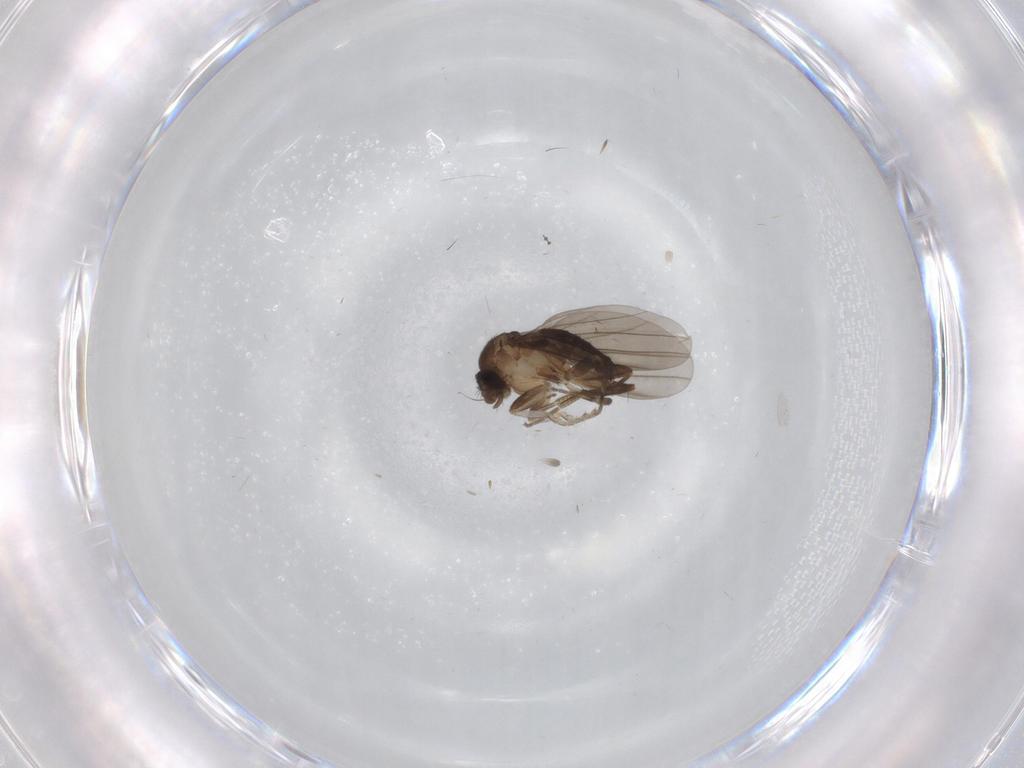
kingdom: Animalia
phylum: Arthropoda
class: Insecta
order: Diptera
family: Cecidomyiidae
